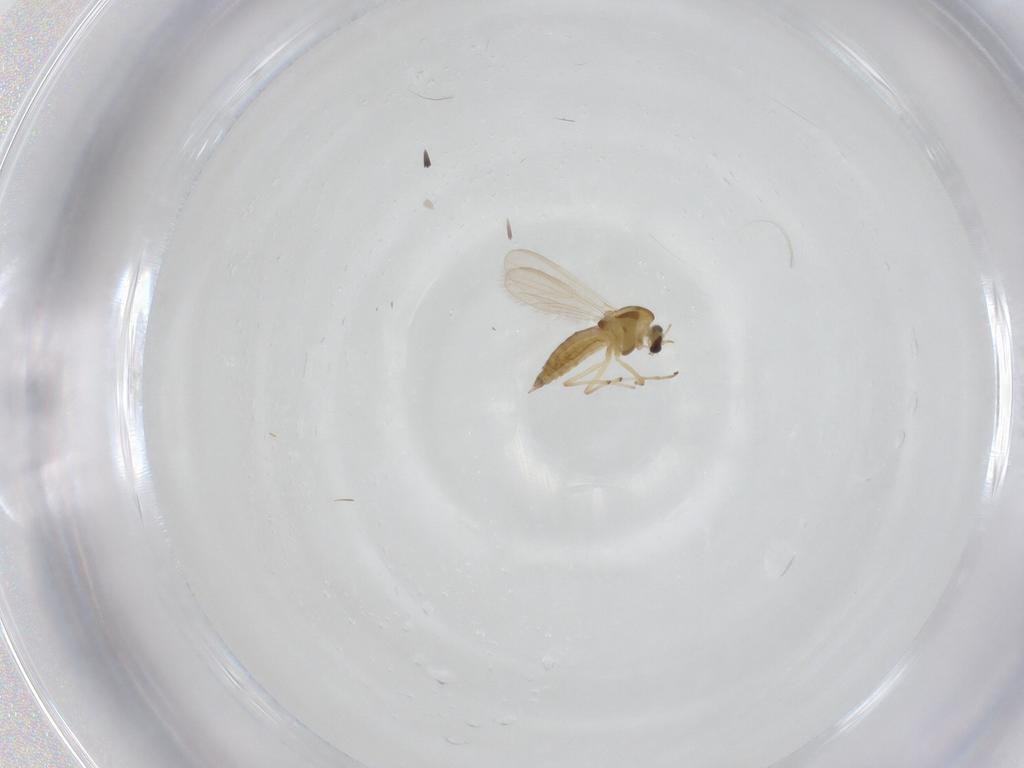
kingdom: Animalia
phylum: Arthropoda
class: Insecta
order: Diptera
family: Chironomidae
